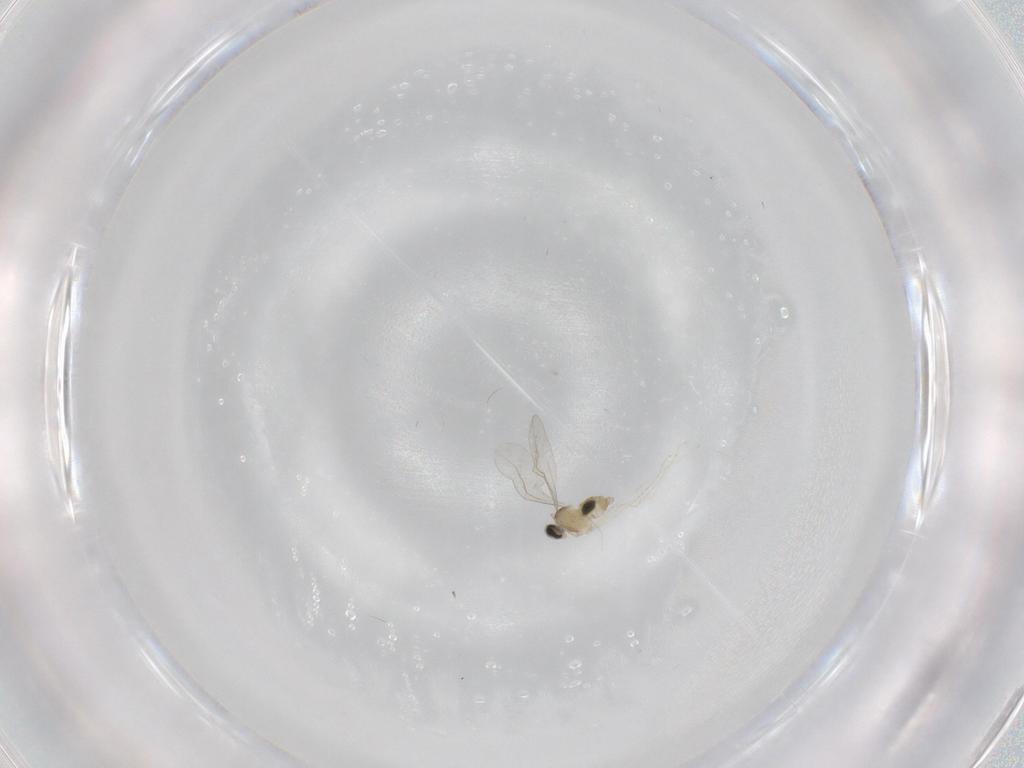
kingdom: Animalia
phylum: Arthropoda
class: Insecta
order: Diptera
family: Cecidomyiidae
